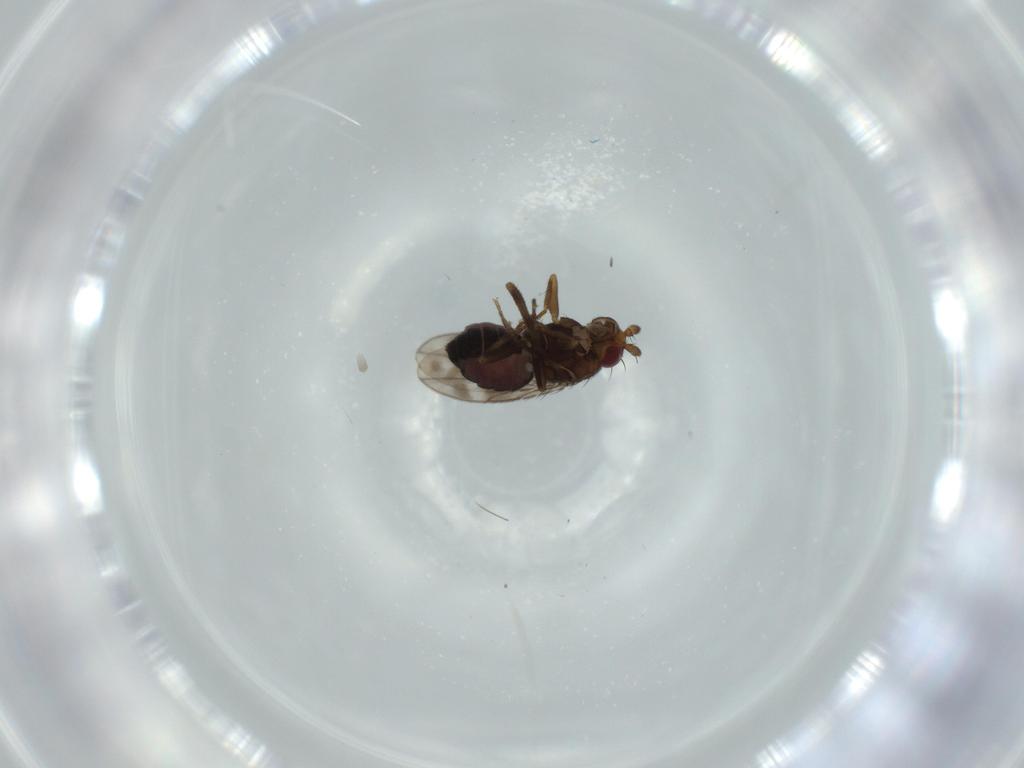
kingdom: Animalia
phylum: Arthropoda
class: Insecta
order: Diptera
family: Sphaeroceridae
